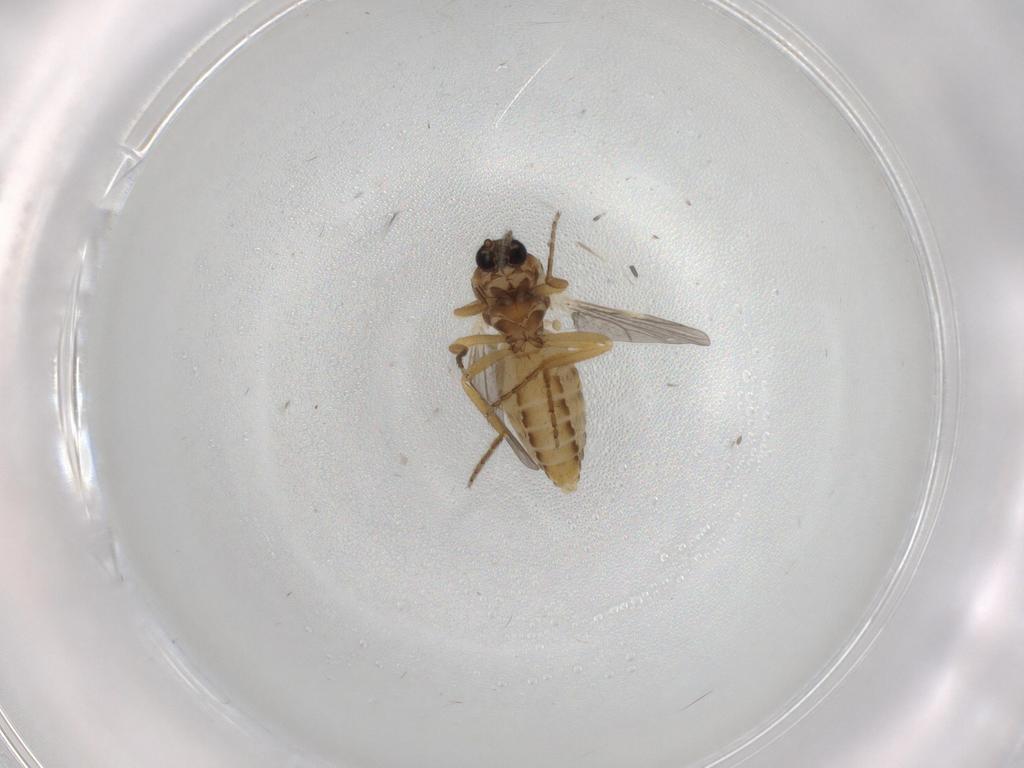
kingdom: Animalia
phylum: Arthropoda
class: Insecta
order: Diptera
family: Ceratopogonidae
